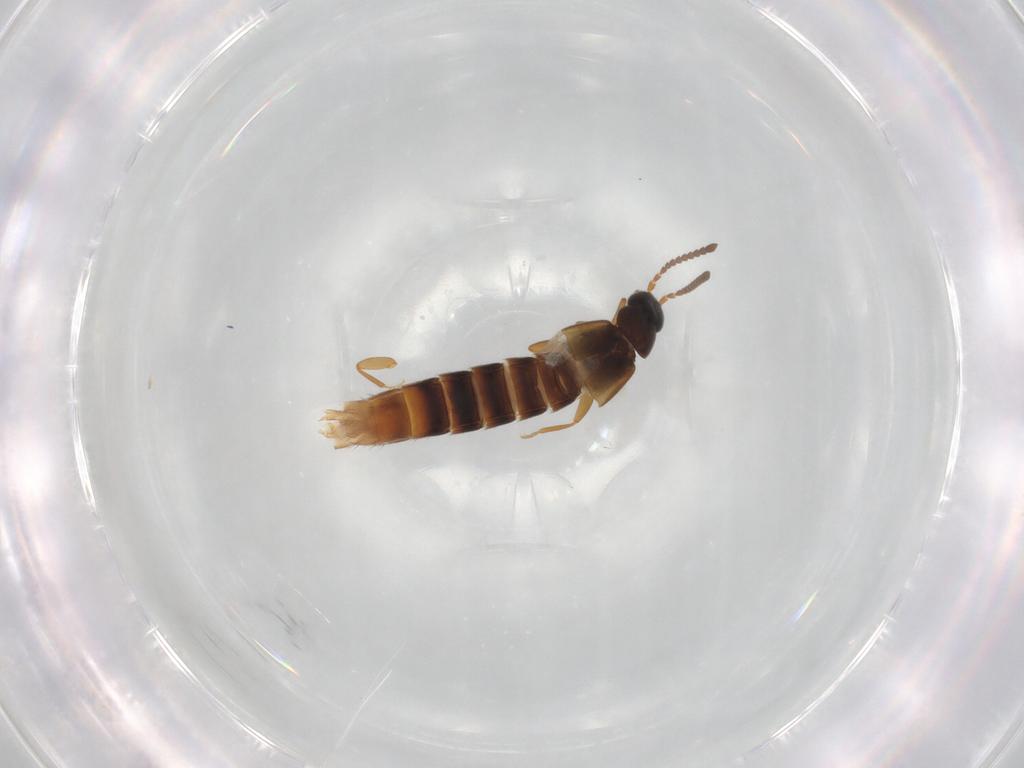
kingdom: Animalia
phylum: Arthropoda
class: Insecta
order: Coleoptera
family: Staphylinidae
